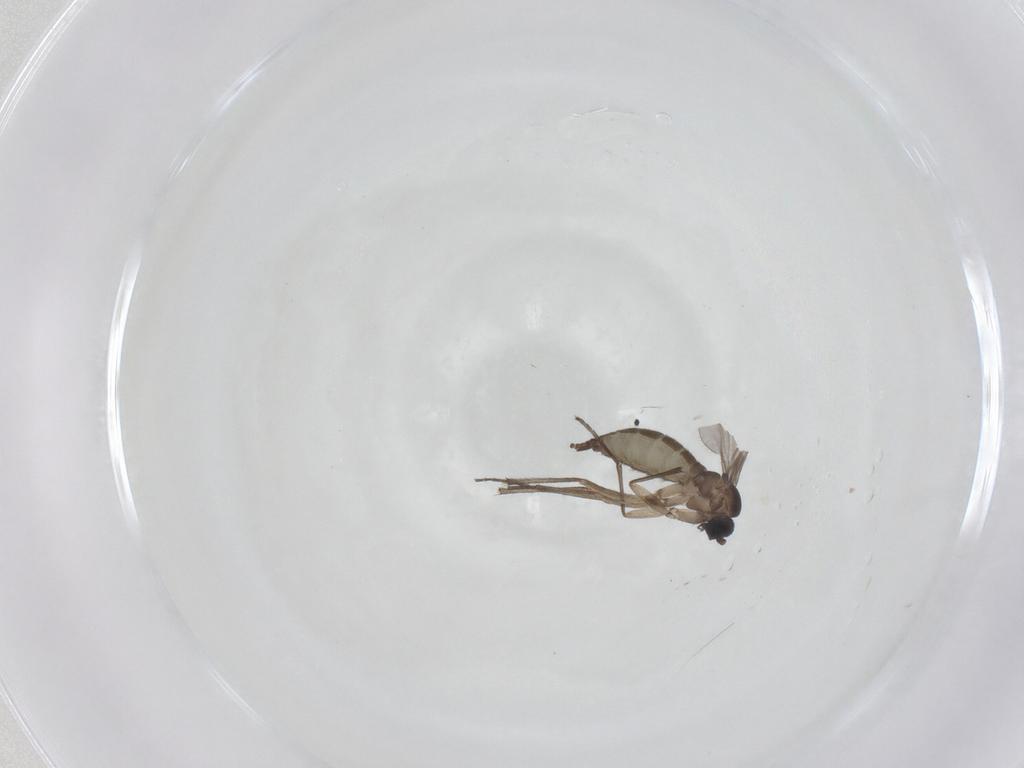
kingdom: Animalia
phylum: Arthropoda
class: Insecta
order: Diptera
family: Sciaridae
